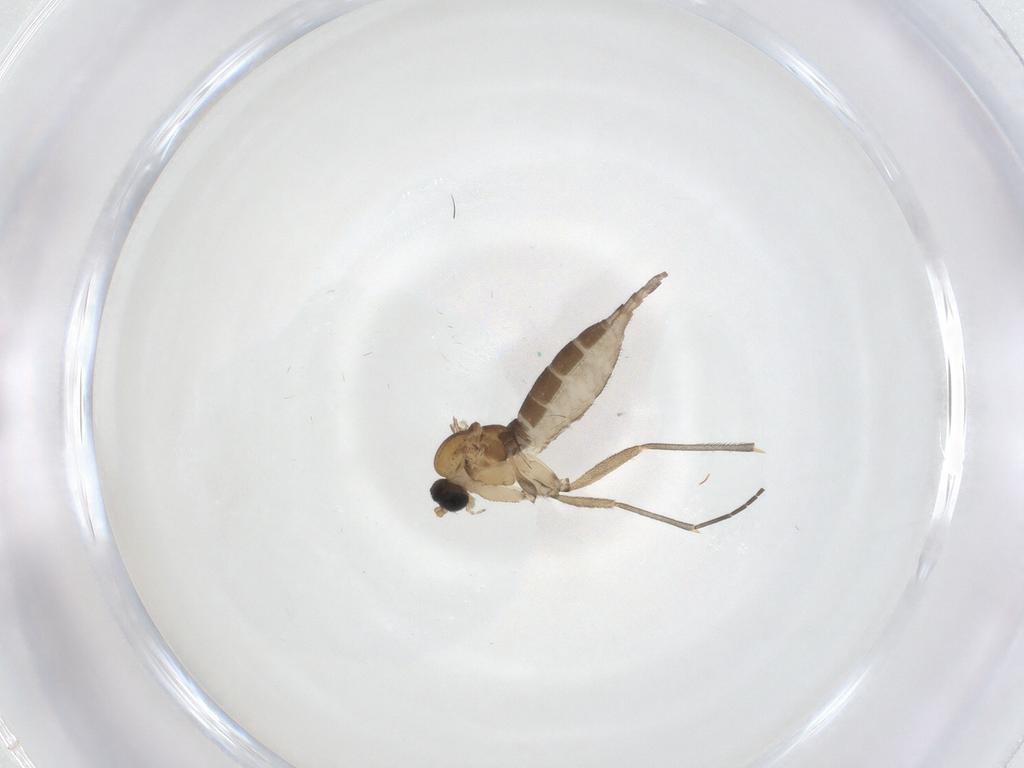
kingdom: Animalia
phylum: Arthropoda
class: Insecta
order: Diptera
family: Sciaridae
